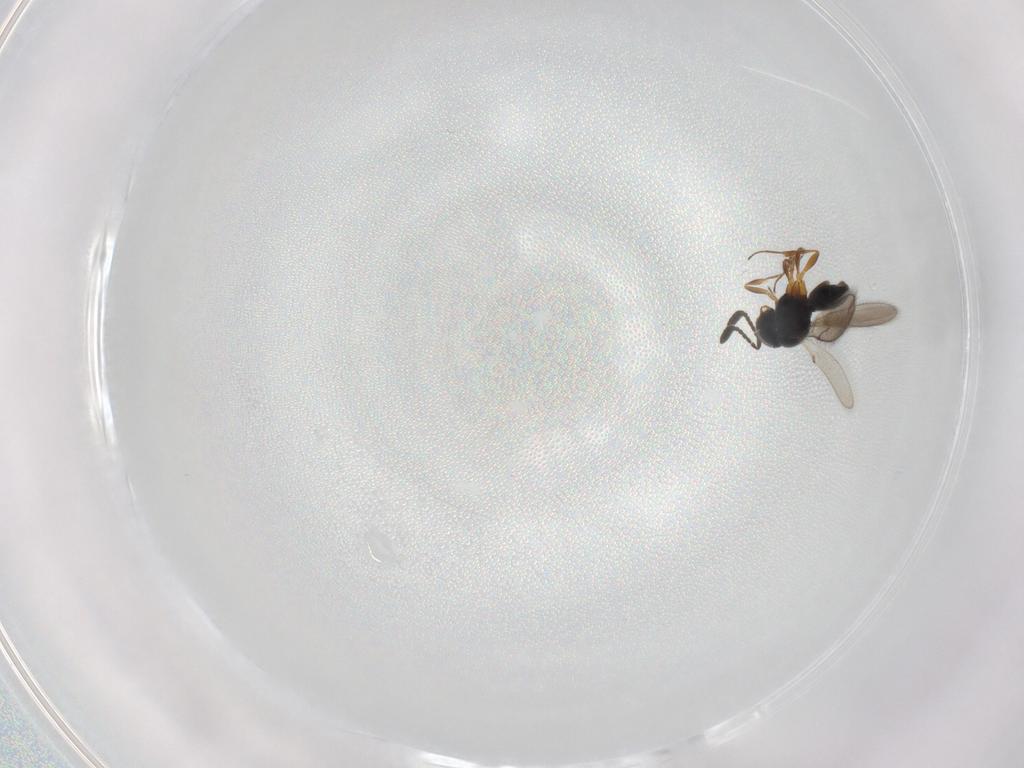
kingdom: Animalia
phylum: Arthropoda
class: Insecta
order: Hymenoptera
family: Scelionidae
